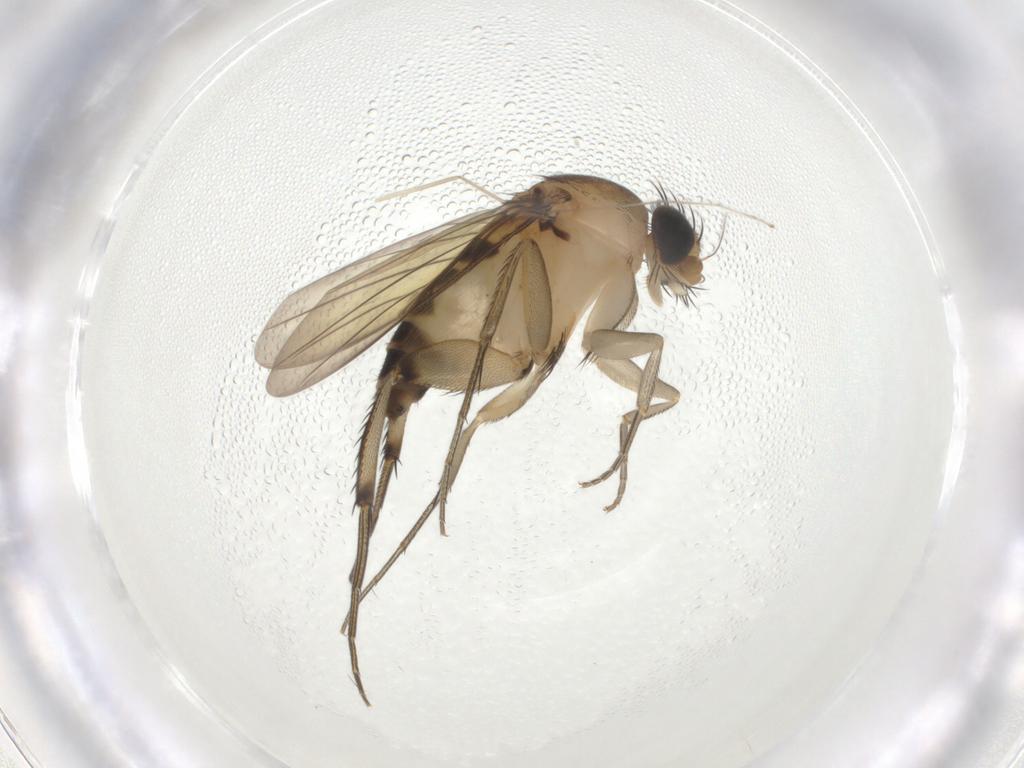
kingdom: Animalia
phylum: Arthropoda
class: Insecta
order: Diptera
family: Phoridae
